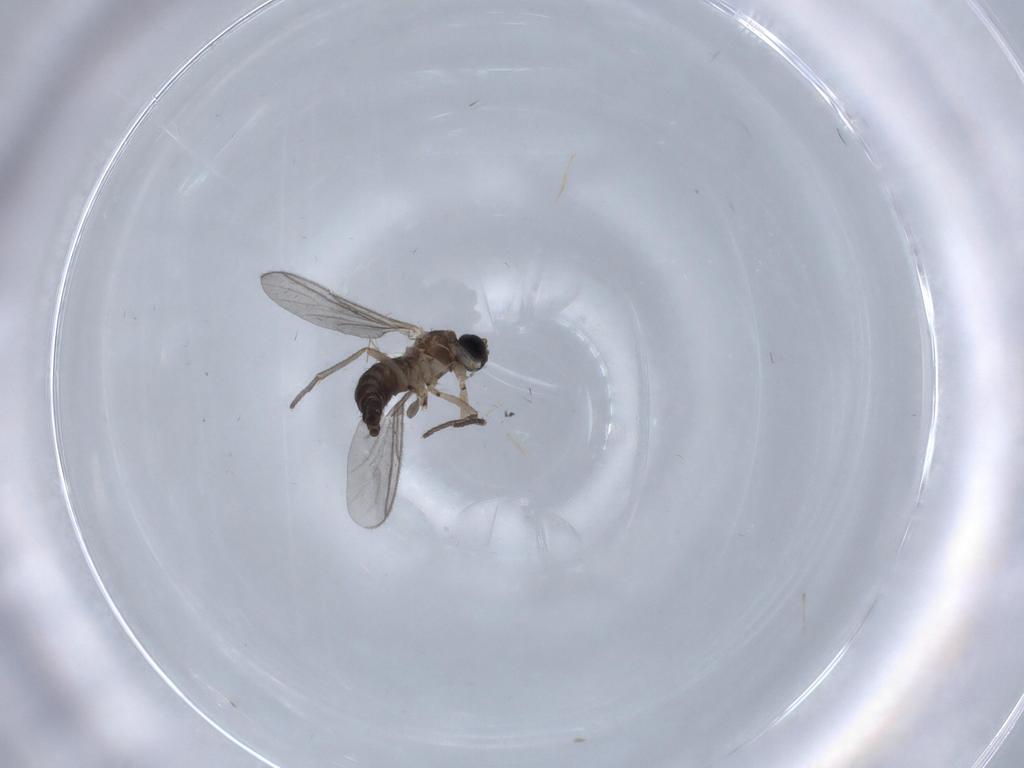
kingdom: Animalia
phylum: Arthropoda
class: Insecta
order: Diptera
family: Sciaridae
